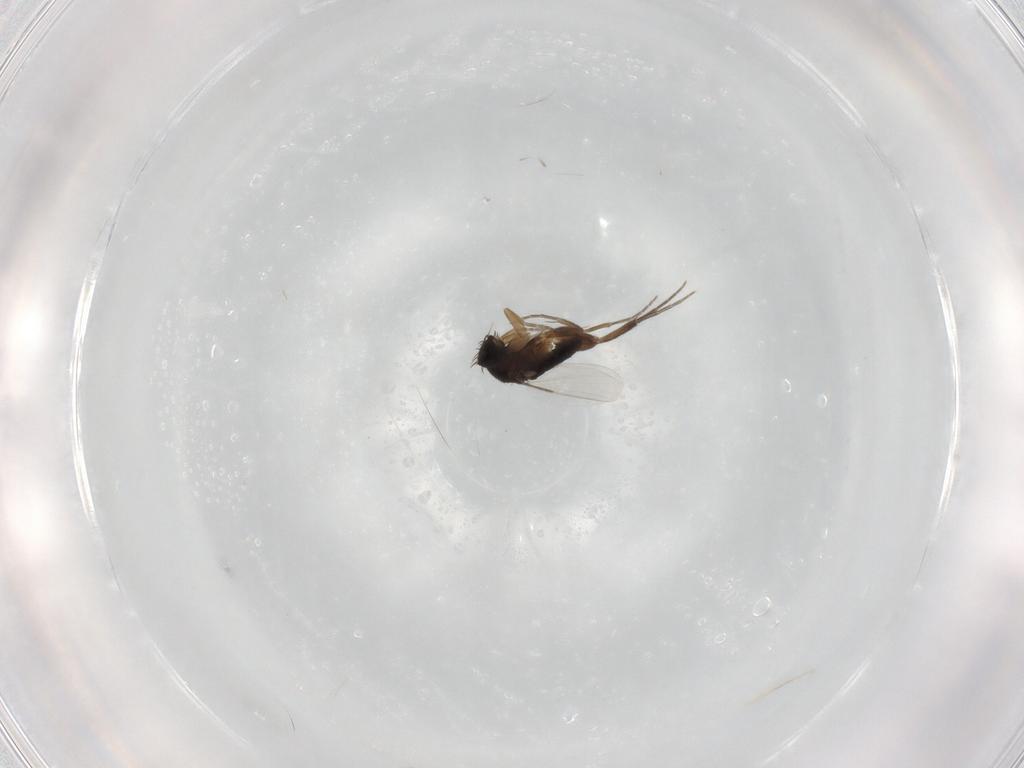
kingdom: Animalia
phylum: Arthropoda
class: Insecta
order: Diptera
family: Phoridae
